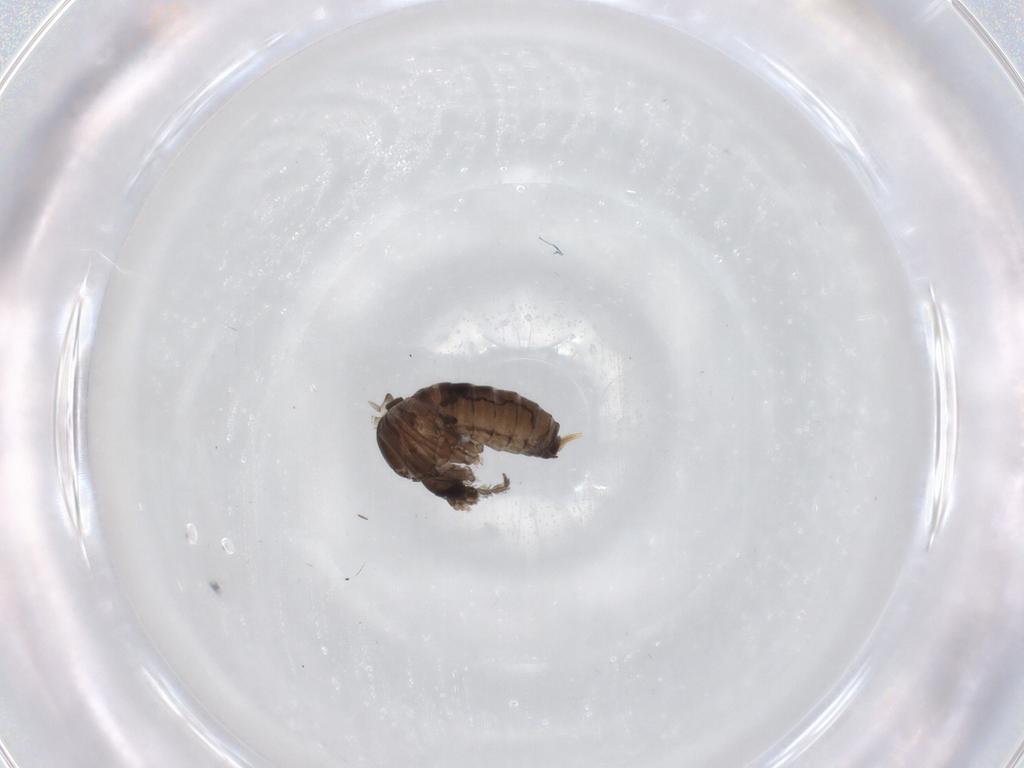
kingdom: Animalia
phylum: Arthropoda
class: Insecta
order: Diptera
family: Psychodidae
